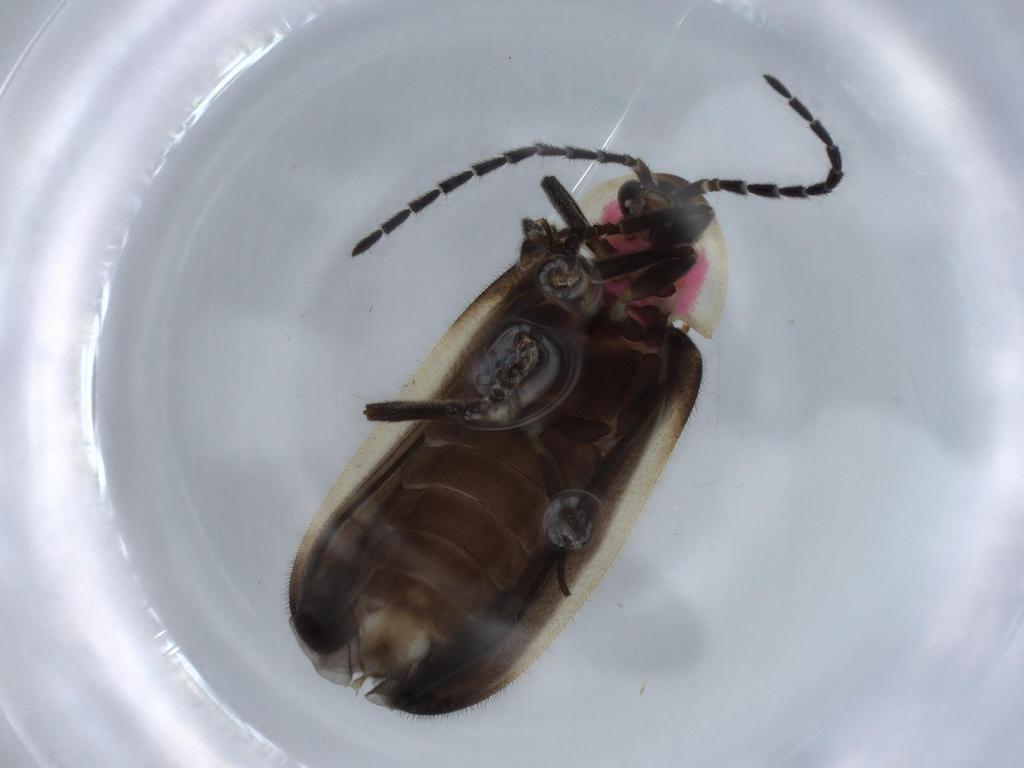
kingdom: Animalia
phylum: Arthropoda
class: Insecta
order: Coleoptera
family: Lampyridae
